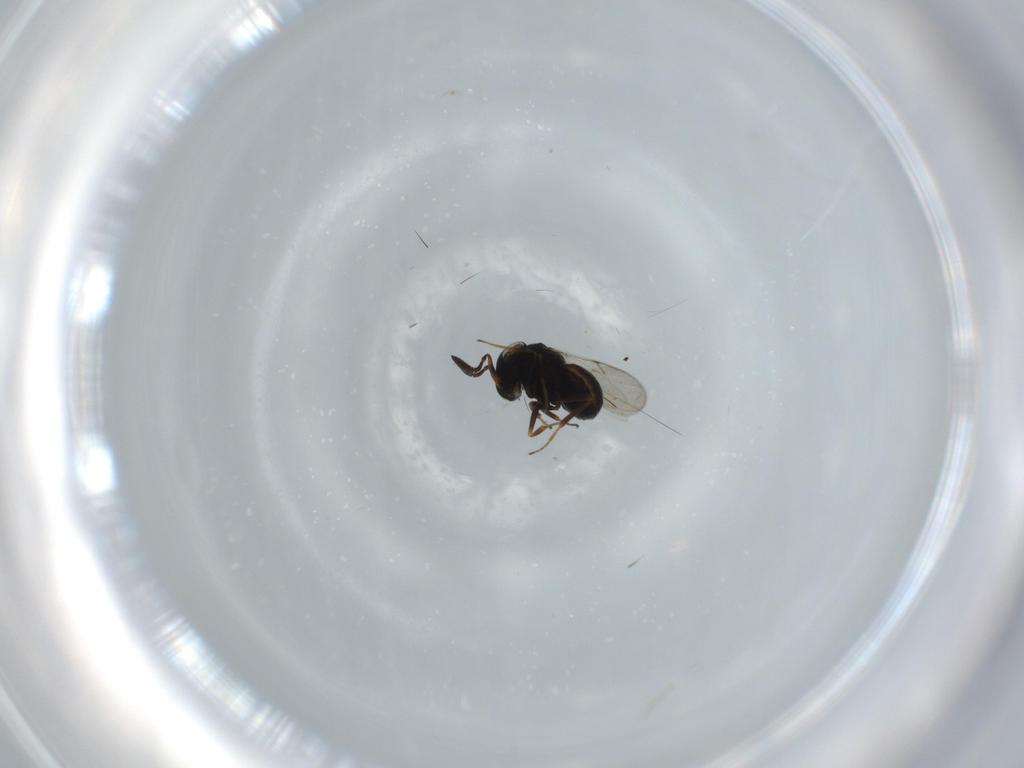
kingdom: Animalia
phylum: Arthropoda
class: Insecta
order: Hymenoptera
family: Scelionidae
